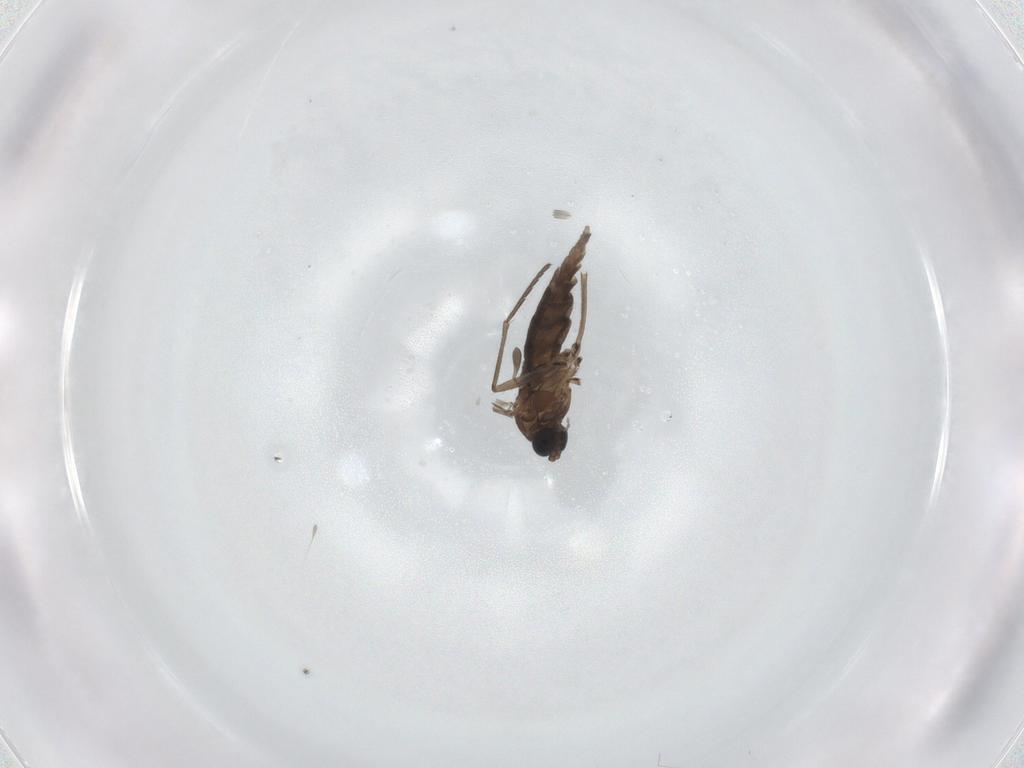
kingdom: Animalia
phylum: Arthropoda
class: Insecta
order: Diptera
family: Sciaridae
